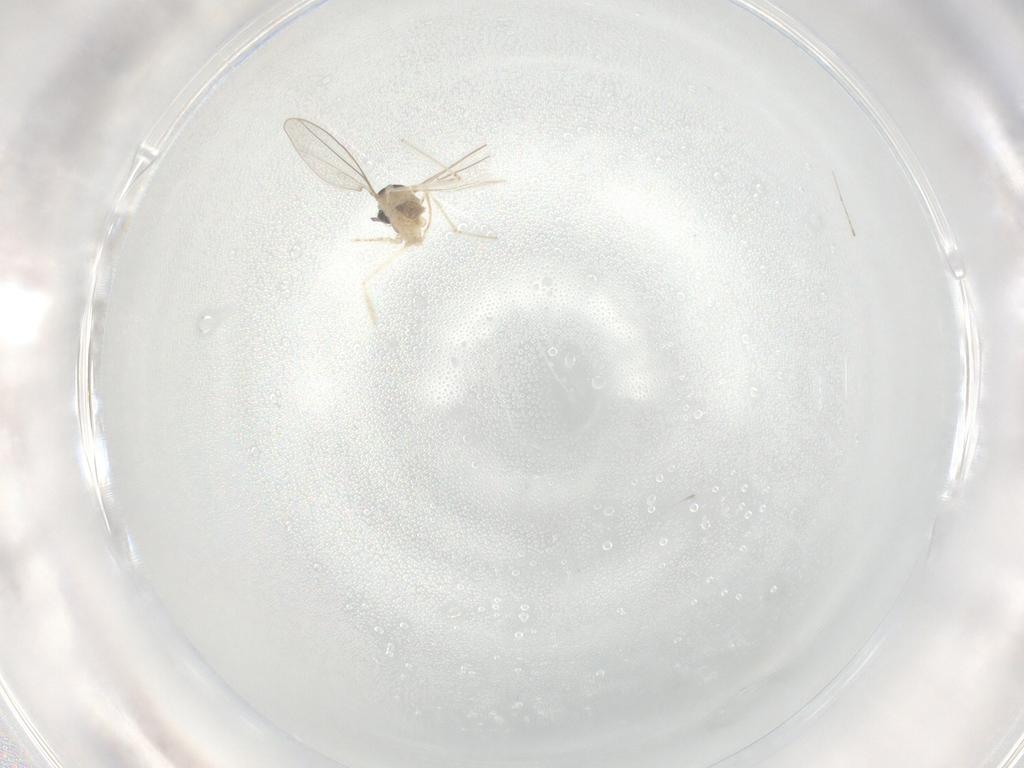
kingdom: Animalia
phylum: Arthropoda
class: Insecta
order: Diptera
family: Cecidomyiidae
